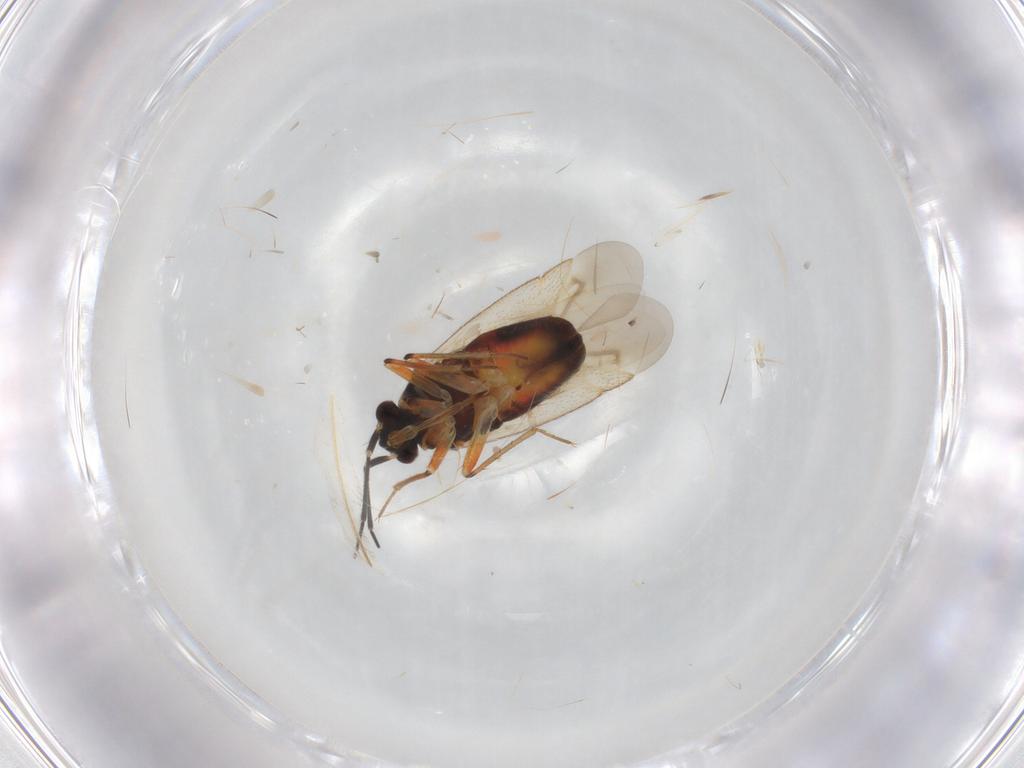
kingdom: Animalia
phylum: Arthropoda
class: Insecta
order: Hemiptera
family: Miridae
